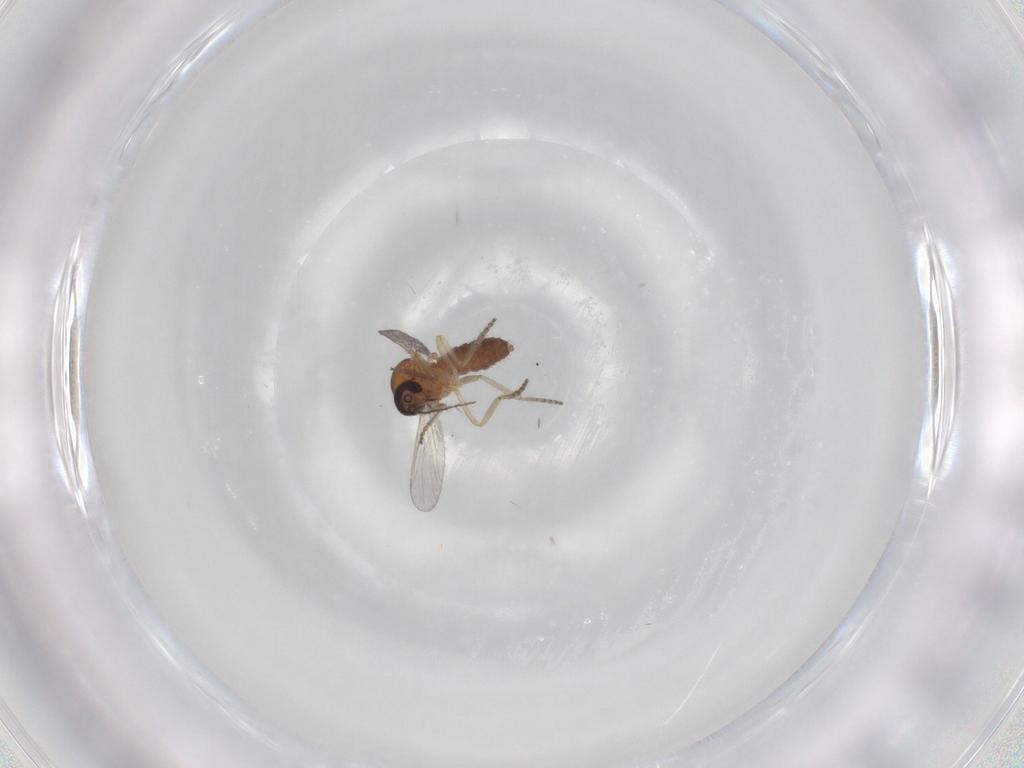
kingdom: Animalia
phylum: Arthropoda
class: Insecta
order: Diptera
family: Ceratopogonidae
